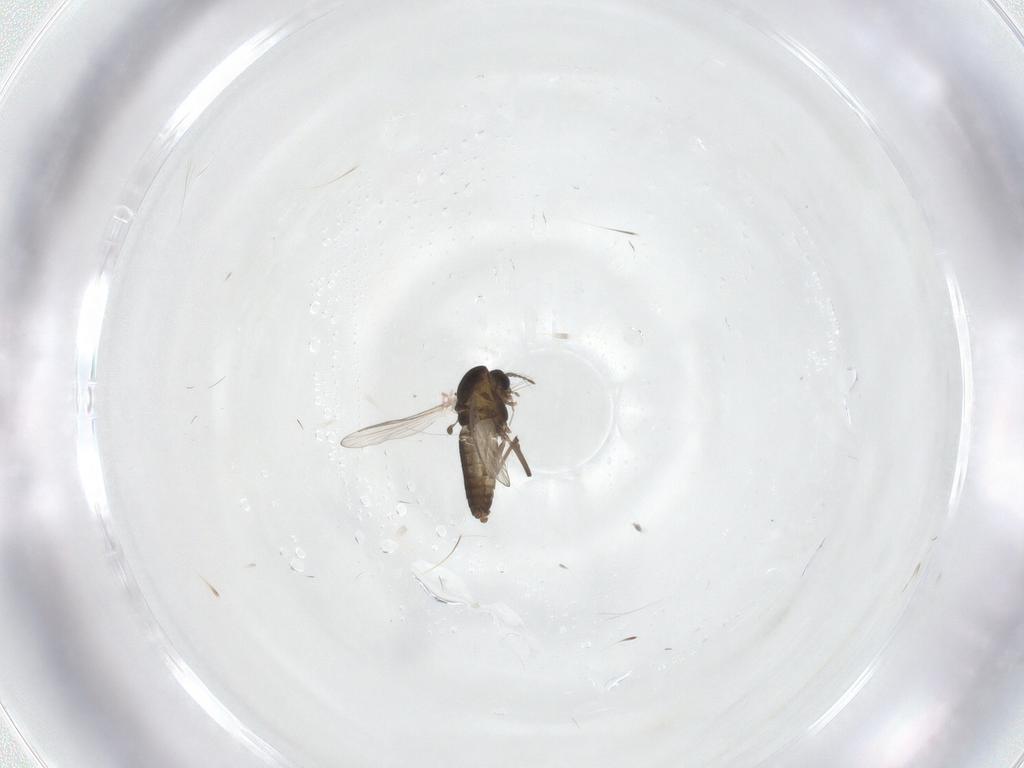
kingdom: Animalia
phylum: Arthropoda
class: Insecta
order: Diptera
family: Chironomidae
